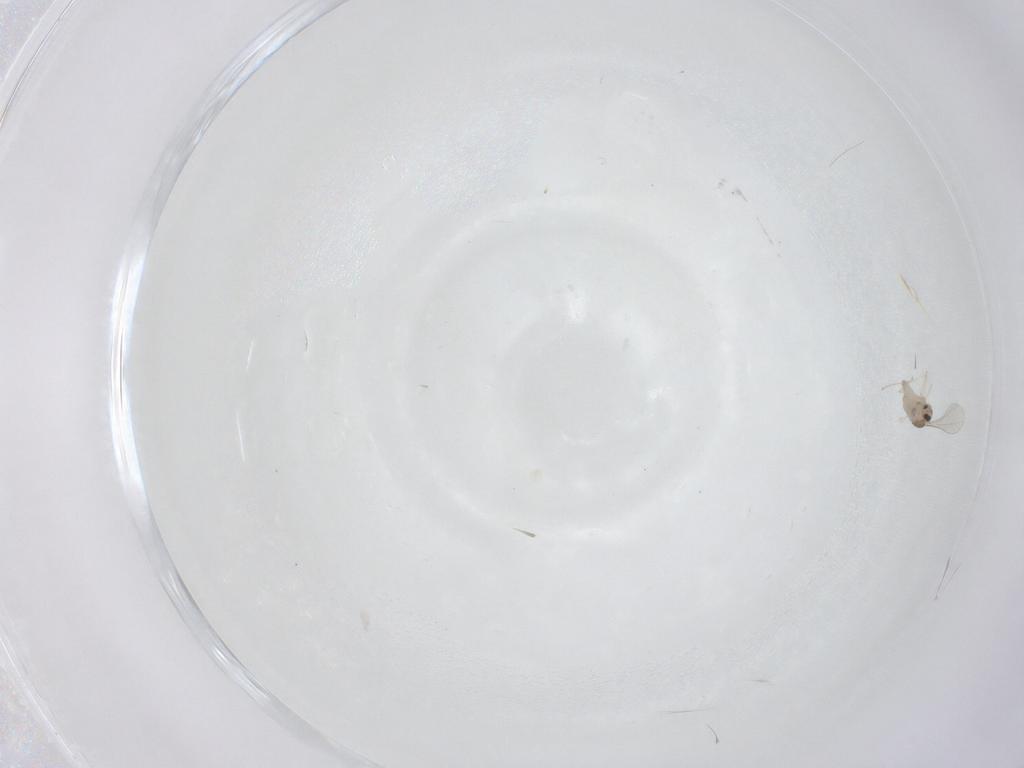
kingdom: Animalia
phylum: Arthropoda
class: Insecta
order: Diptera
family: Cecidomyiidae
